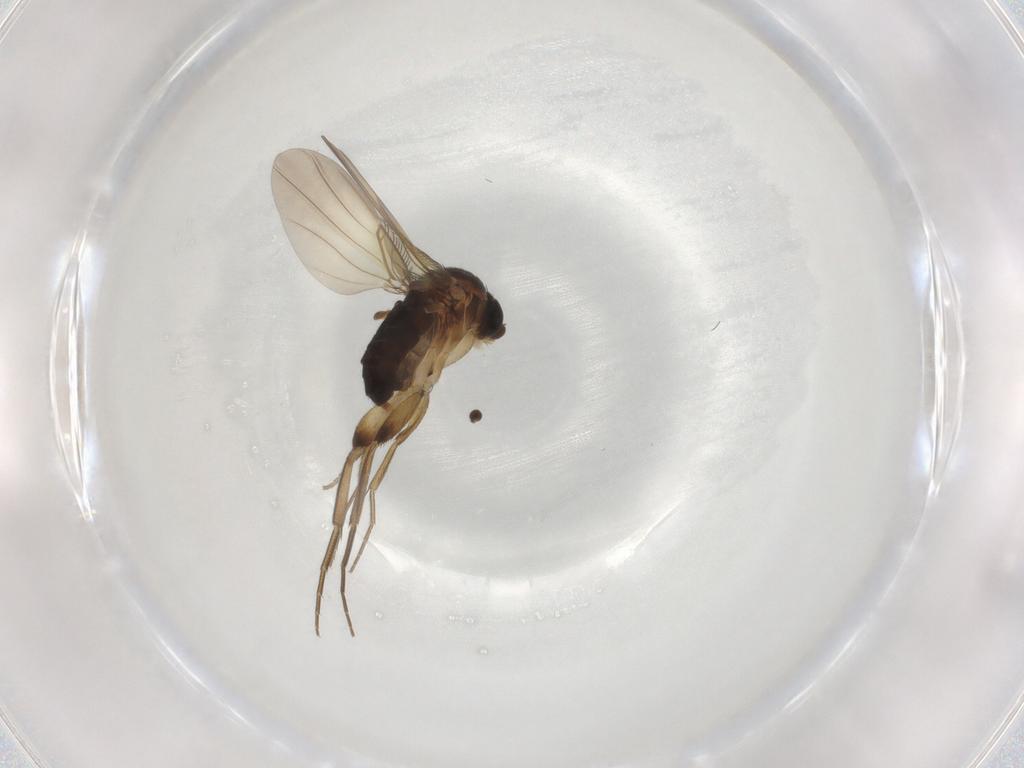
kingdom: Animalia
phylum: Arthropoda
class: Insecta
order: Diptera
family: Phoridae
